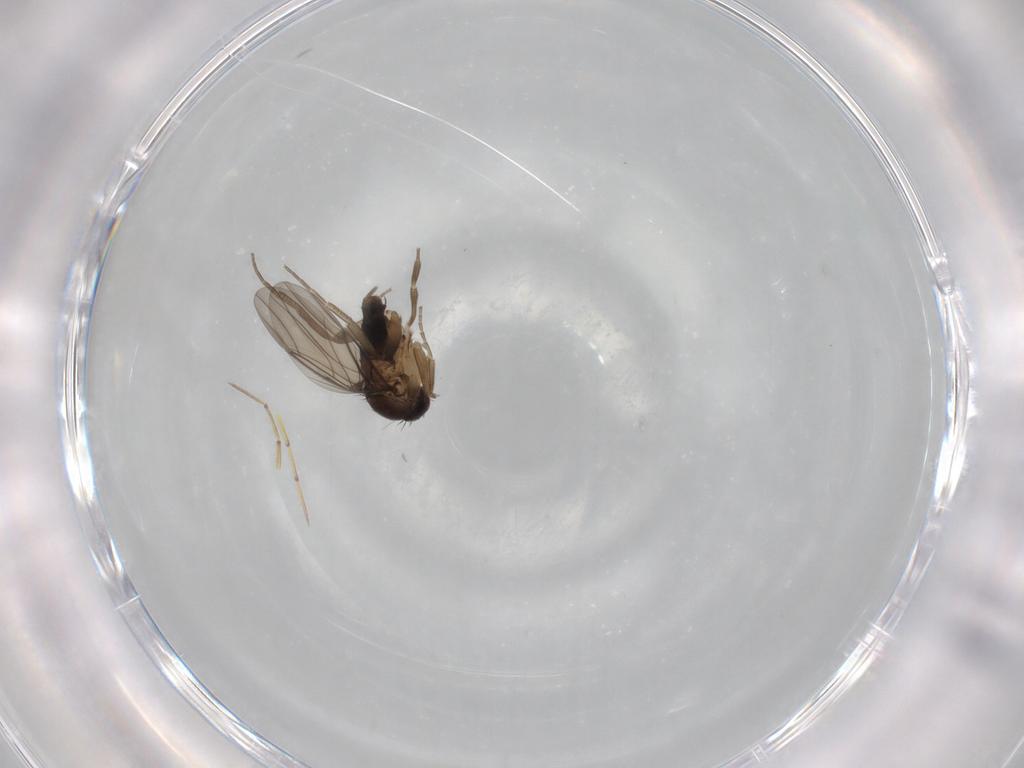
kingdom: Animalia
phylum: Arthropoda
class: Insecta
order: Diptera
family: Phoridae
